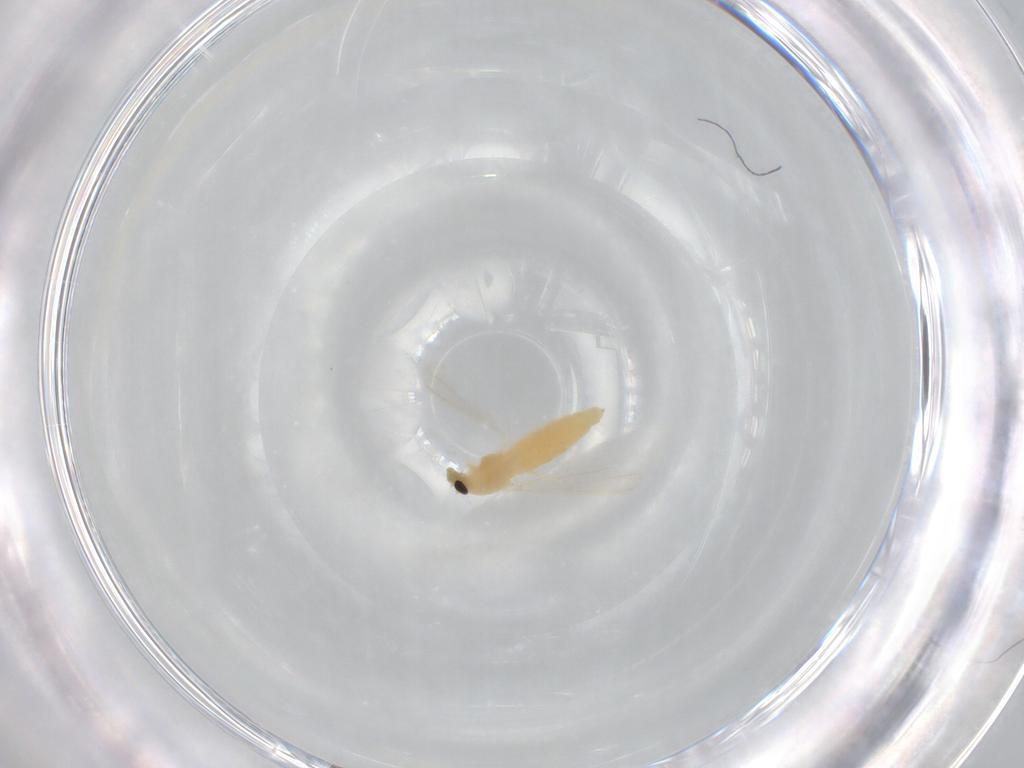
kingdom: Animalia
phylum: Arthropoda
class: Insecta
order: Diptera
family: Chironomidae
